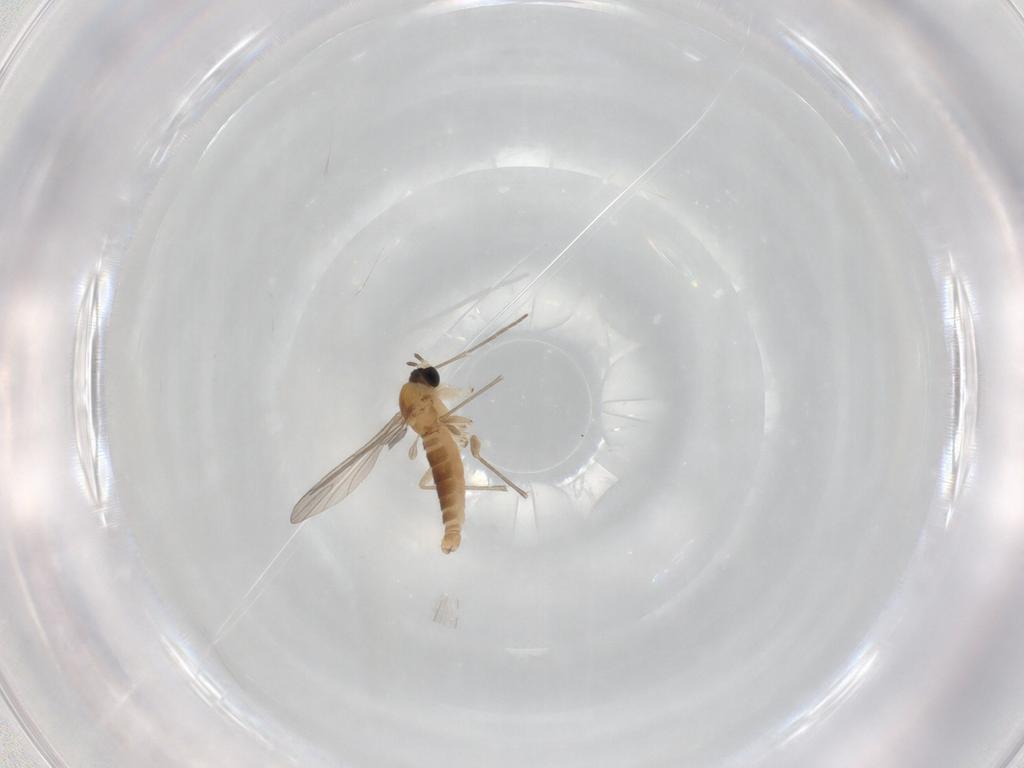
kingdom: Animalia
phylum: Arthropoda
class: Insecta
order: Diptera
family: Sciaridae
